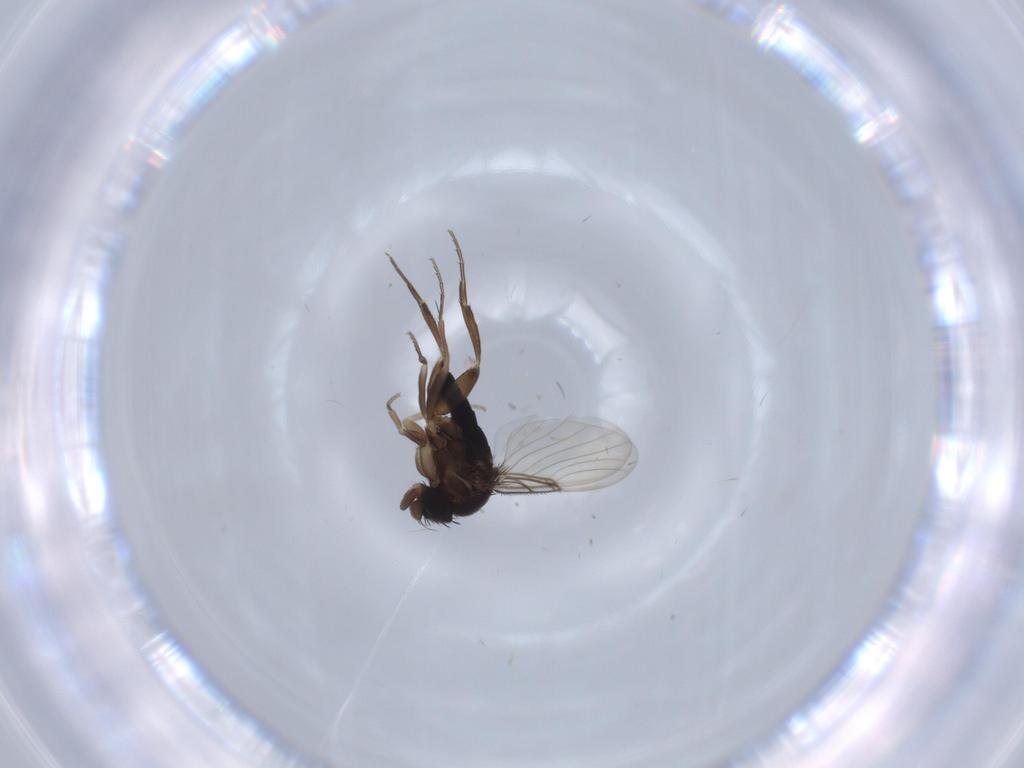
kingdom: Animalia
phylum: Arthropoda
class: Insecta
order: Diptera
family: Phoridae
